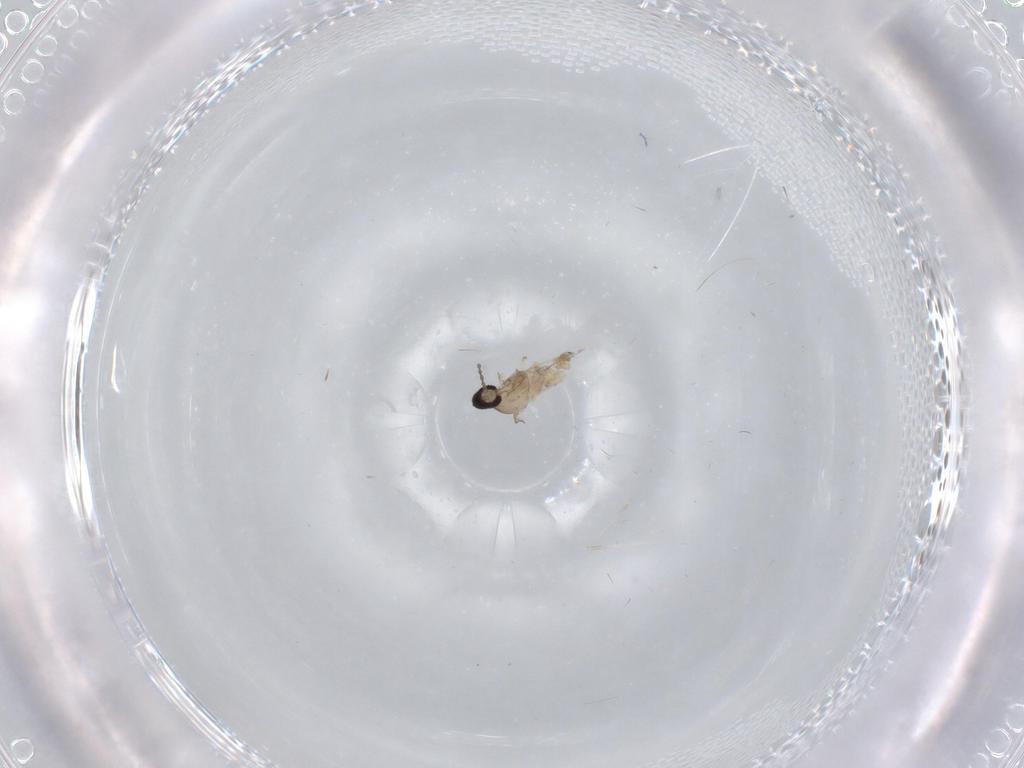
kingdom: Animalia
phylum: Arthropoda
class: Insecta
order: Diptera
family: Cecidomyiidae
